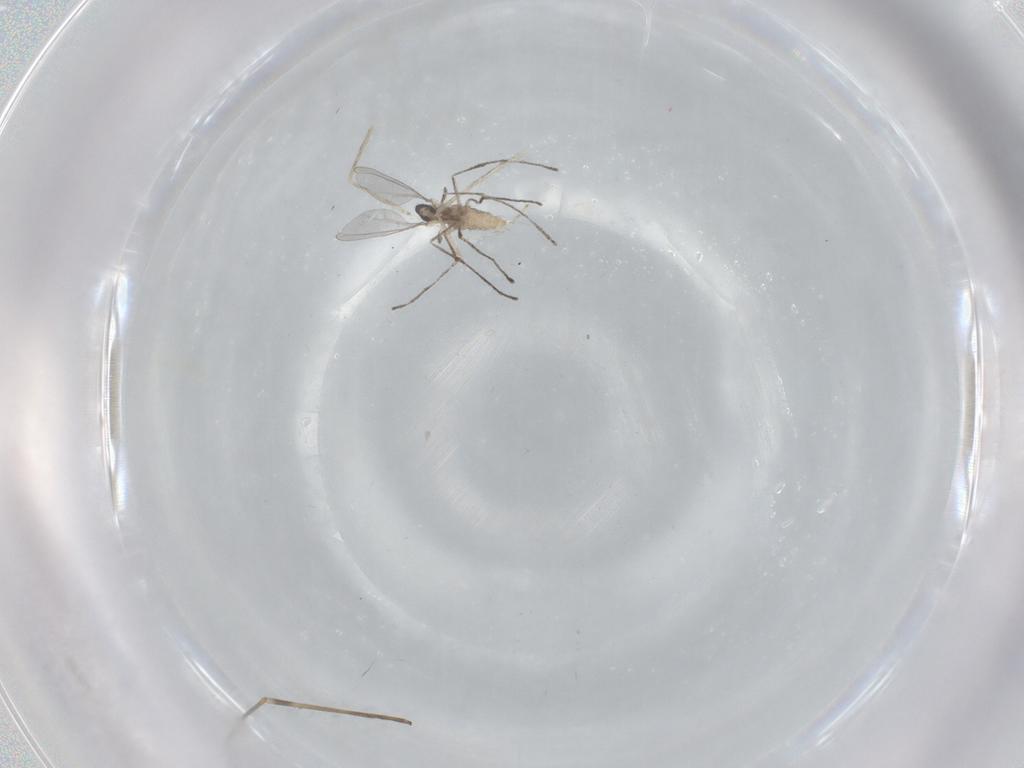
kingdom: Animalia
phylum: Arthropoda
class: Insecta
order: Diptera
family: Cecidomyiidae
